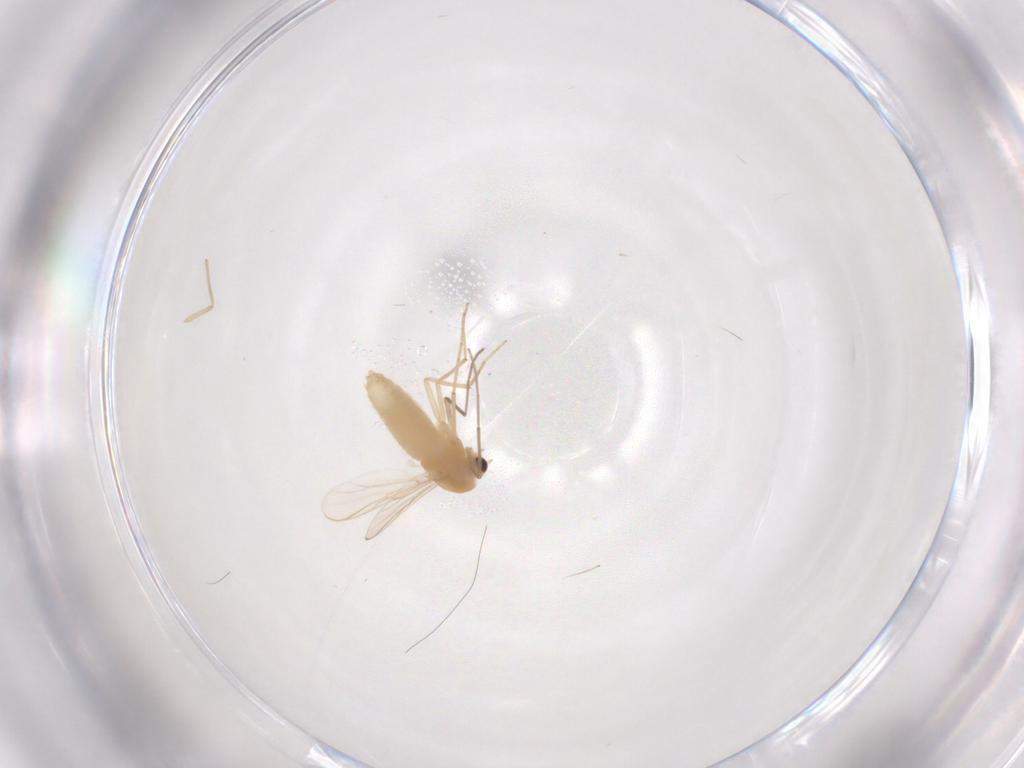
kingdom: Animalia
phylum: Arthropoda
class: Insecta
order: Diptera
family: Chironomidae
